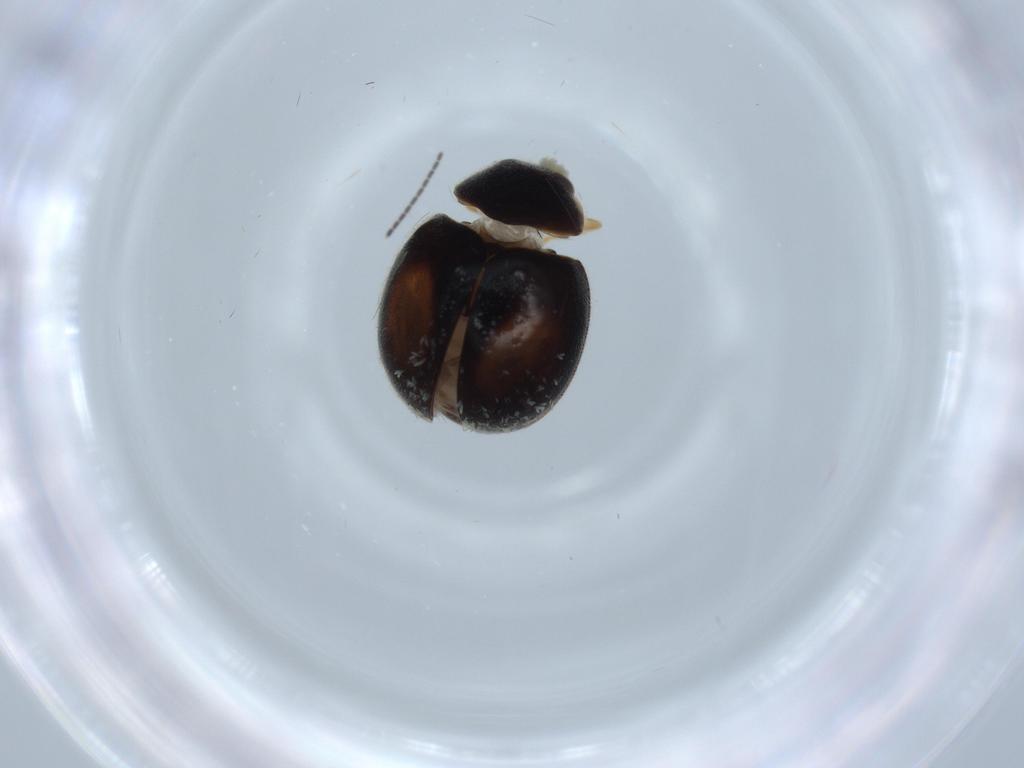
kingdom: Animalia
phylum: Arthropoda
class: Insecta
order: Coleoptera
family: Coccinellidae
